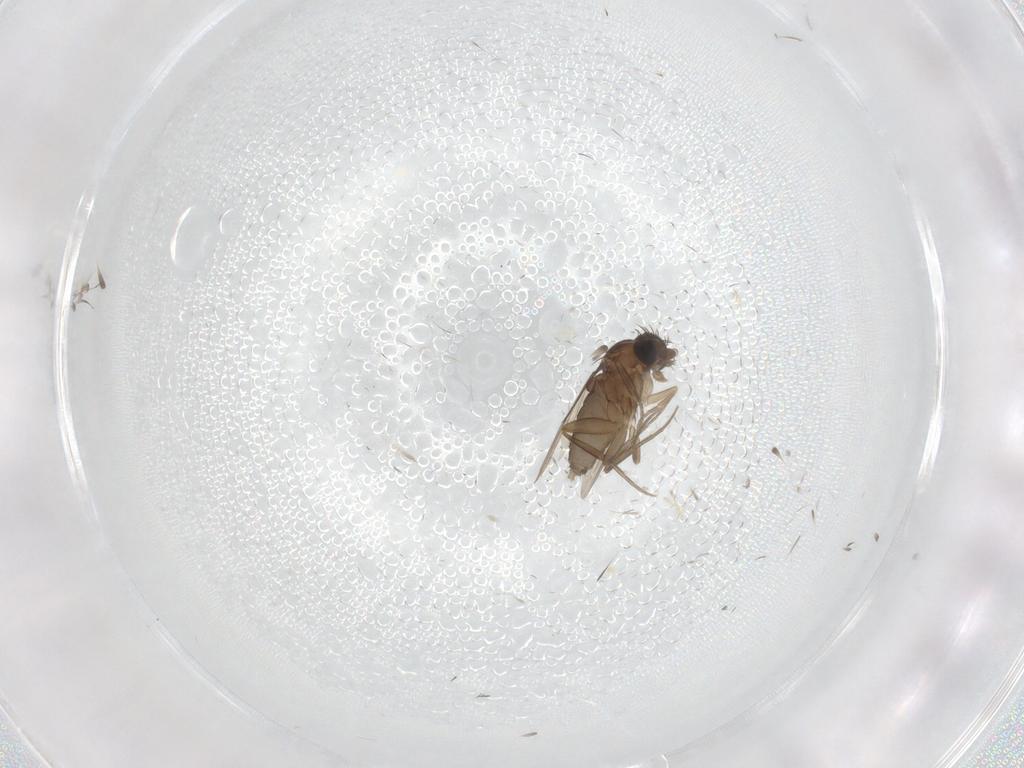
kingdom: Animalia
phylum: Arthropoda
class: Insecta
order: Diptera
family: Phoridae
